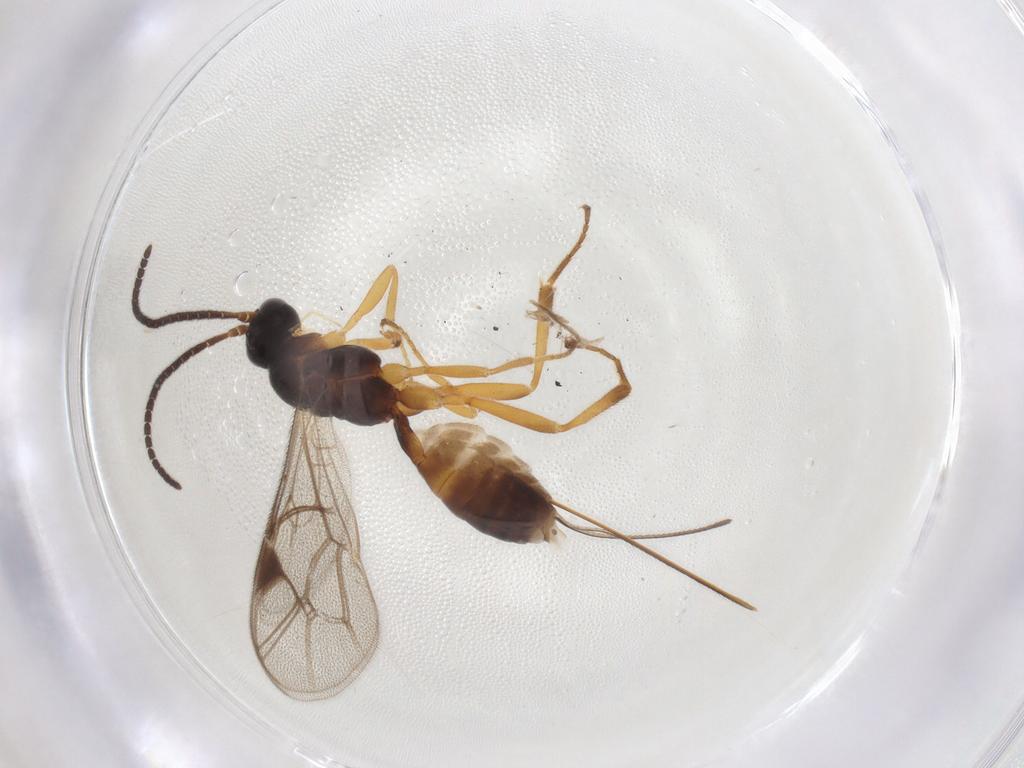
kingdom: Animalia
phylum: Arthropoda
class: Insecta
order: Hymenoptera
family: Ichneumonidae
